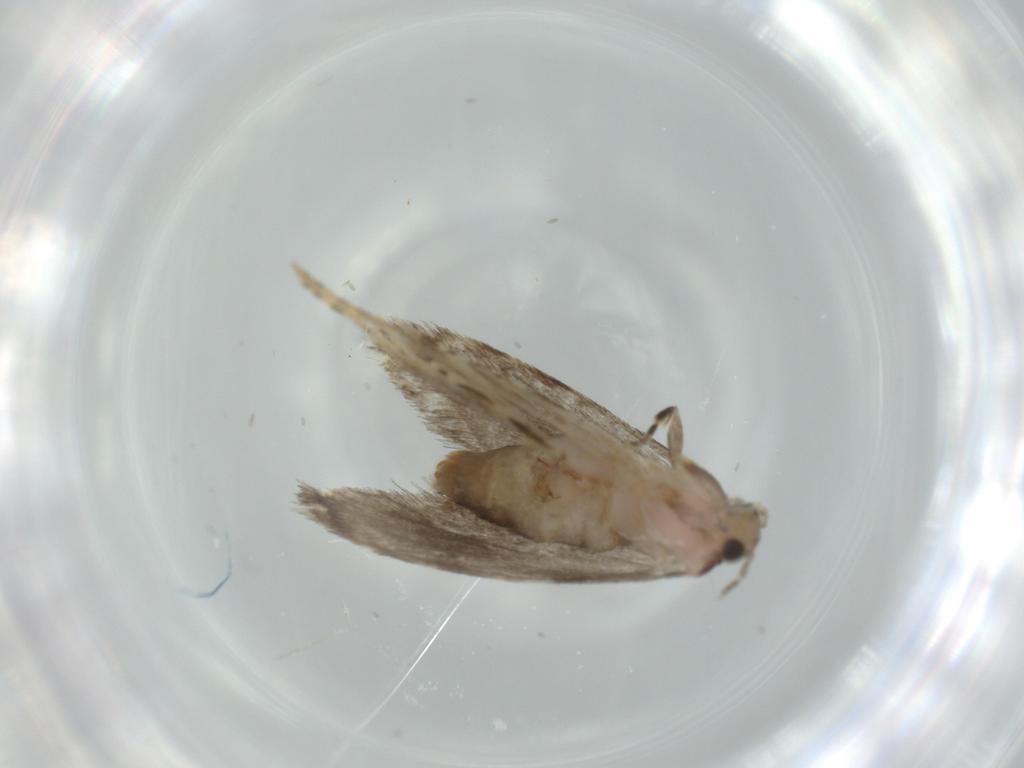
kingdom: Animalia
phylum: Arthropoda
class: Insecta
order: Lepidoptera
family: Tineidae
